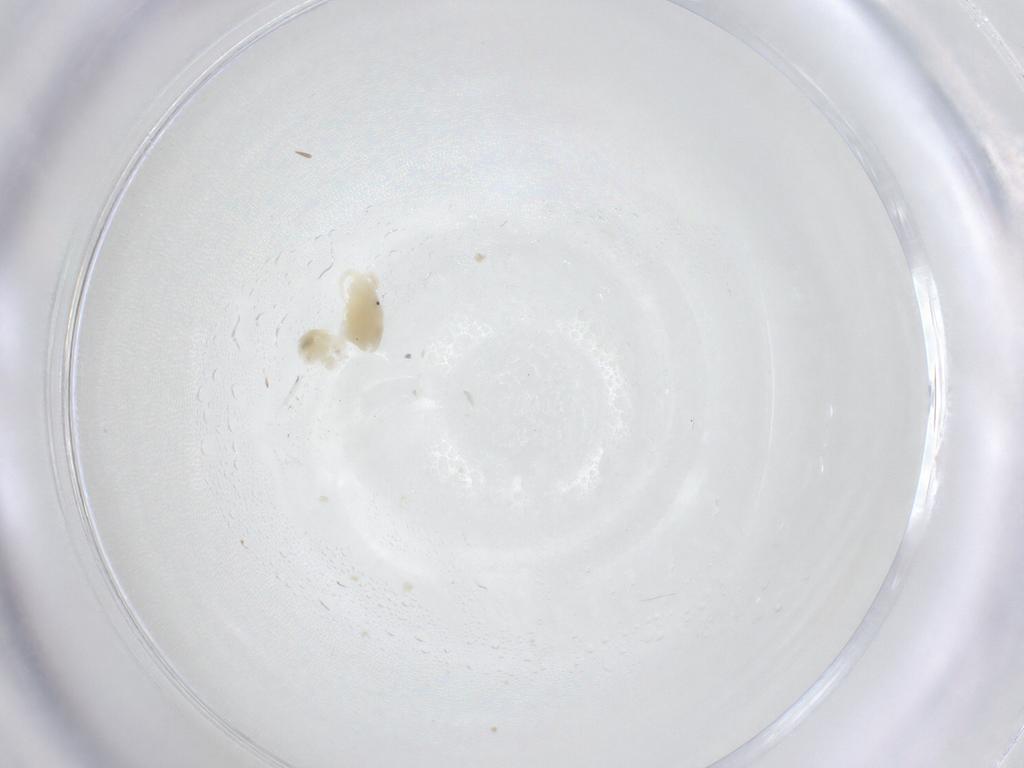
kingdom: Animalia
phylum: Arthropoda
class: Arachnida
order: Trombidiformes
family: Anystidae
